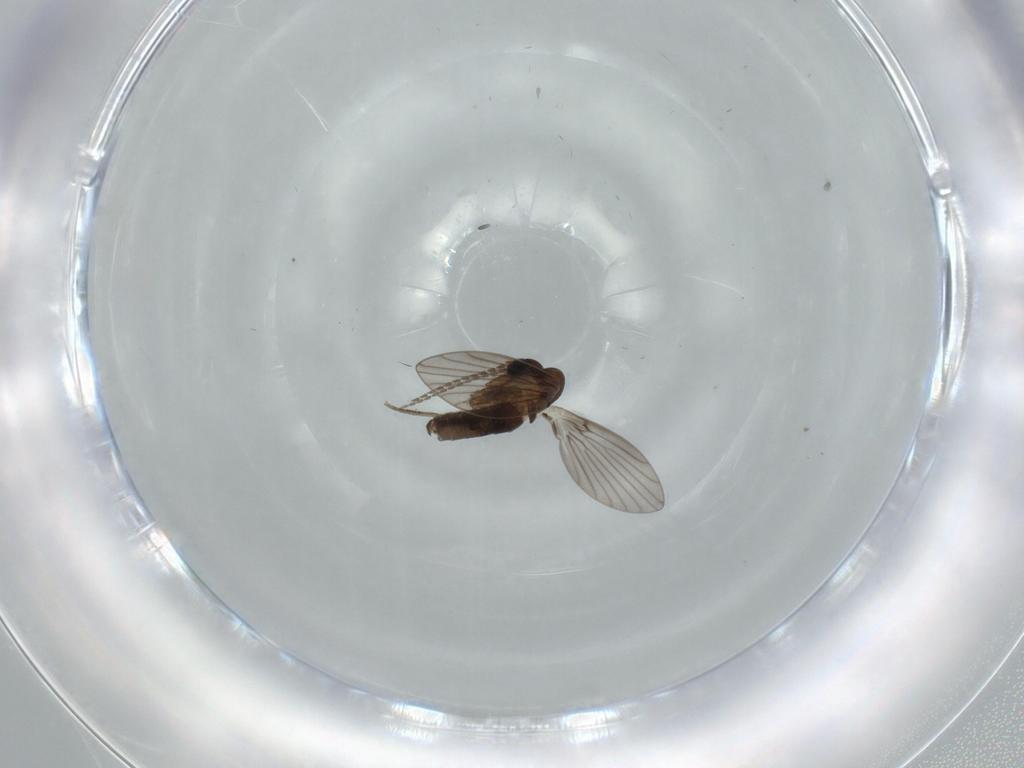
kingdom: Animalia
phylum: Arthropoda
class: Insecta
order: Diptera
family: Dolichopodidae
